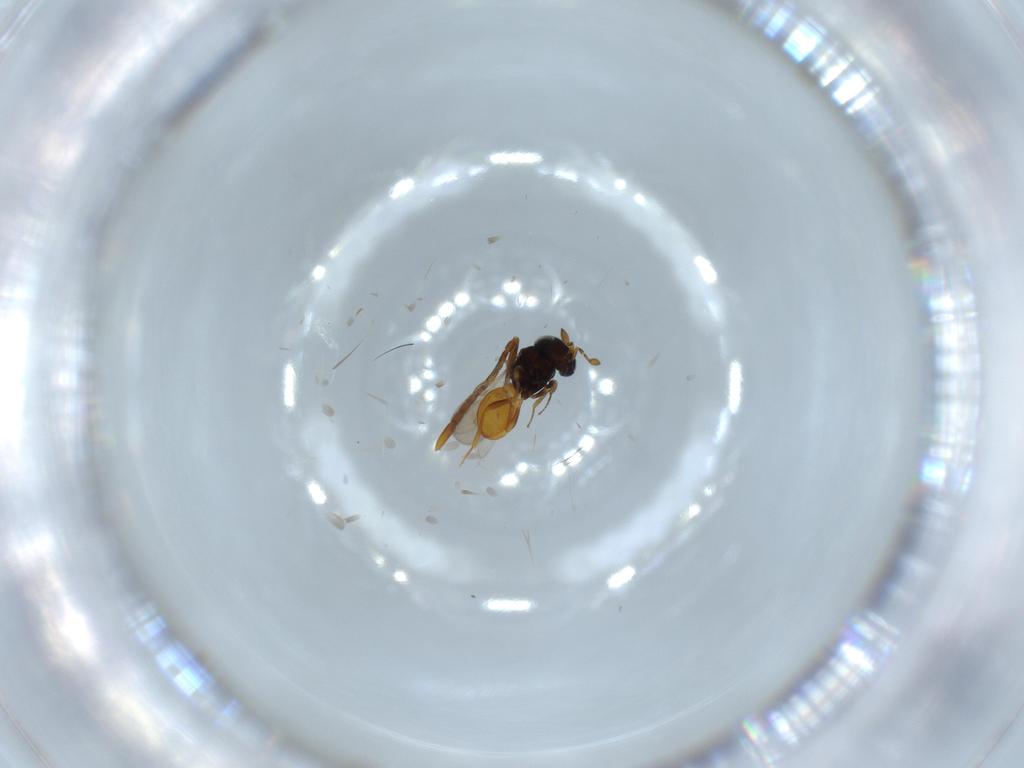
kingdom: Animalia
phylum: Arthropoda
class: Insecta
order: Hymenoptera
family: Scelionidae
